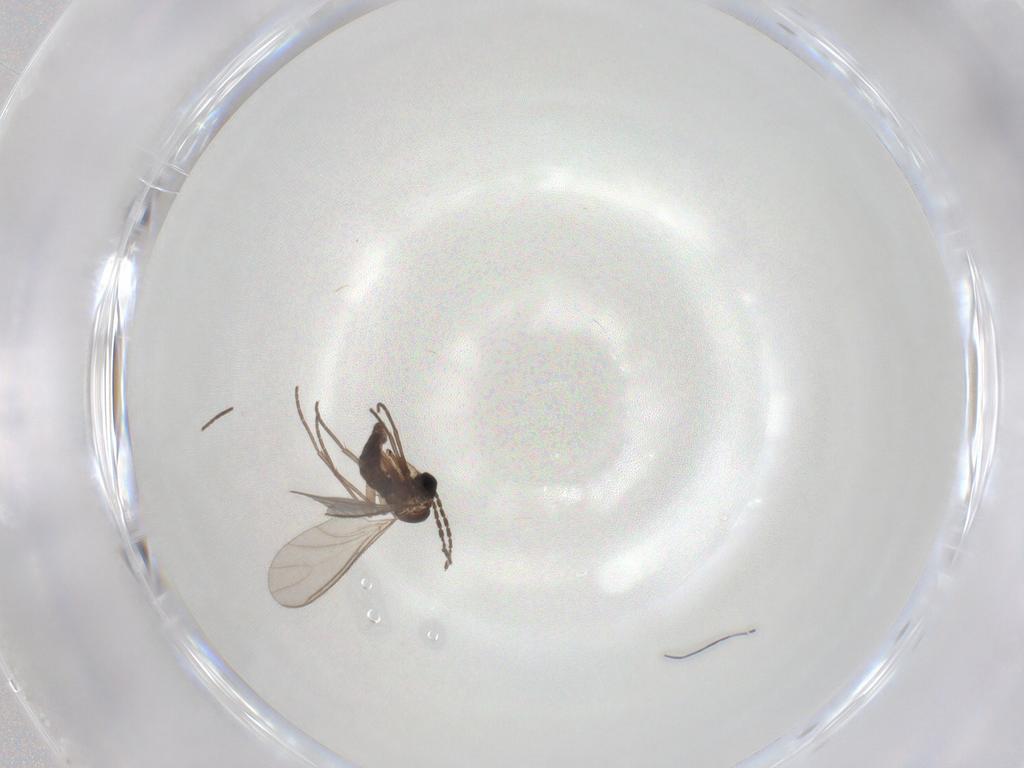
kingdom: Animalia
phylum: Arthropoda
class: Insecta
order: Diptera
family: Sciaridae
